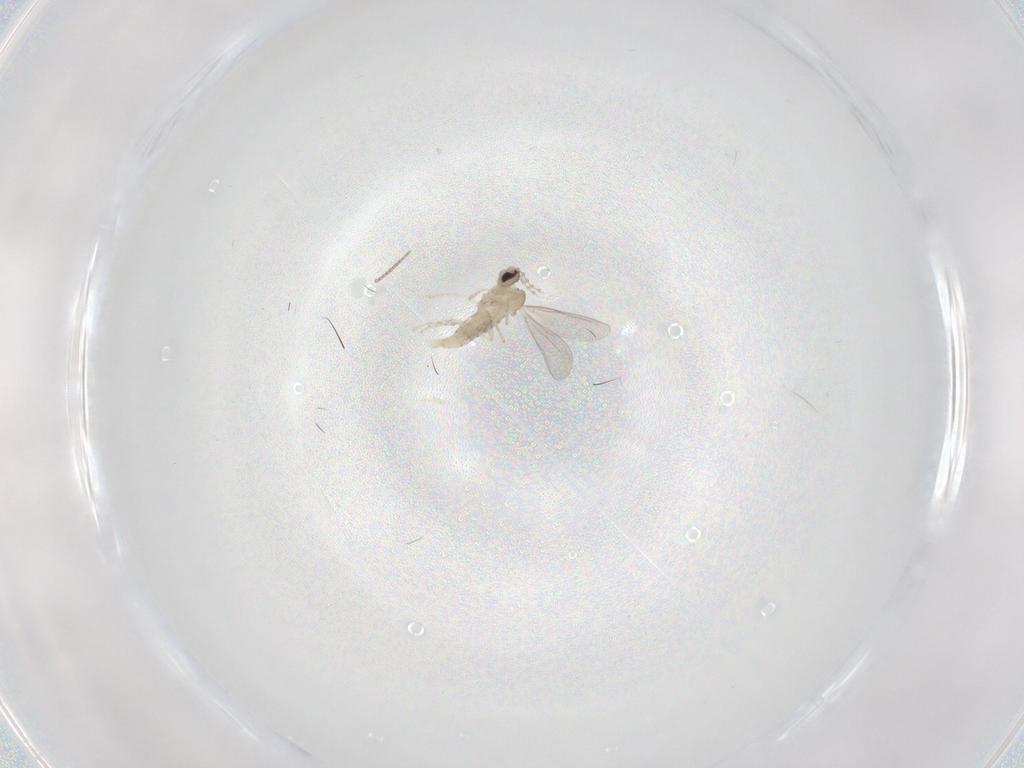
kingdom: Animalia
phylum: Arthropoda
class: Insecta
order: Diptera
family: Cecidomyiidae
